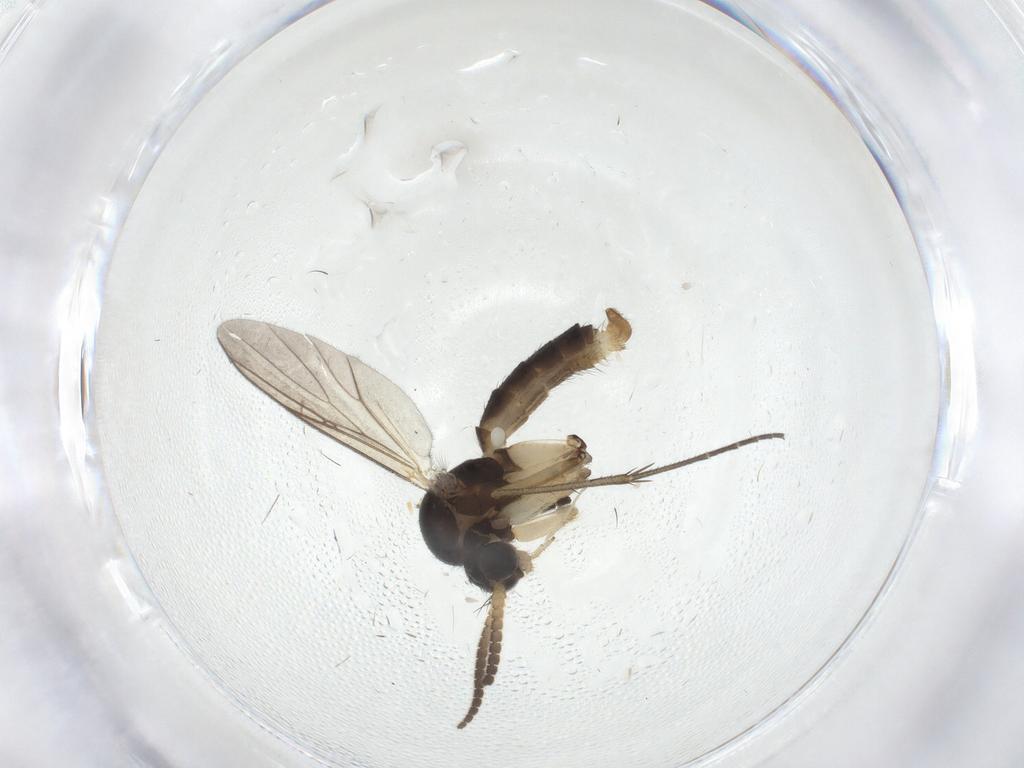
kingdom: Animalia
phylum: Arthropoda
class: Insecta
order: Diptera
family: Sciaridae
